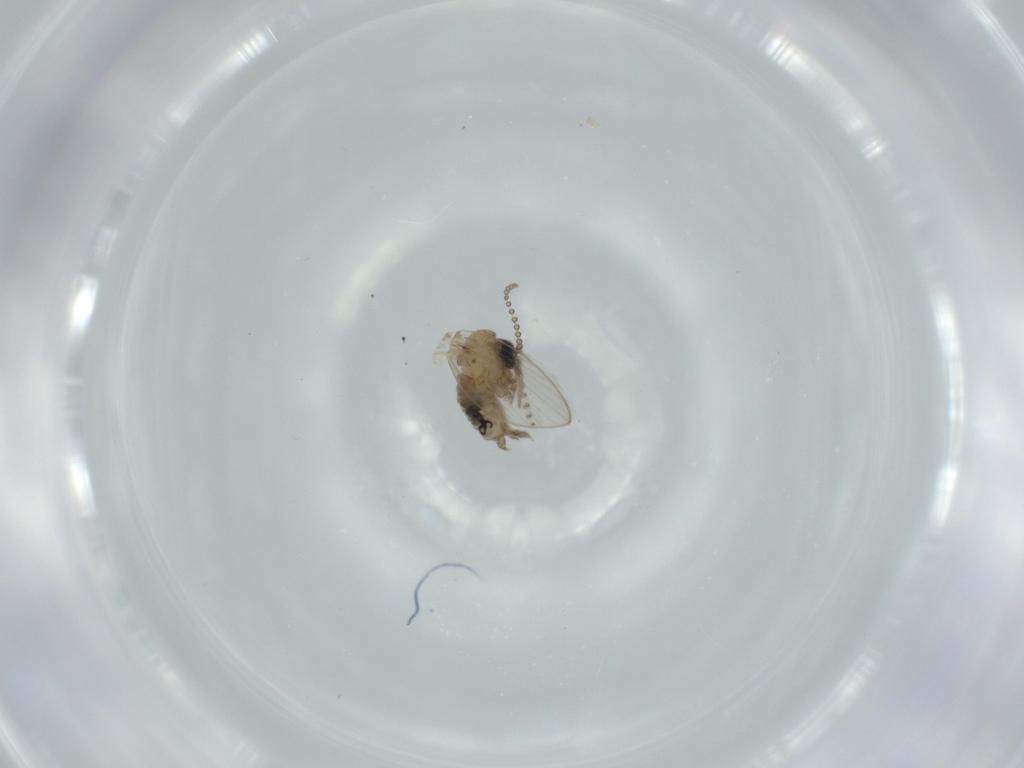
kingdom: Animalia
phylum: Arthropoda
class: Insecta
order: Diptera
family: Psychodidae
